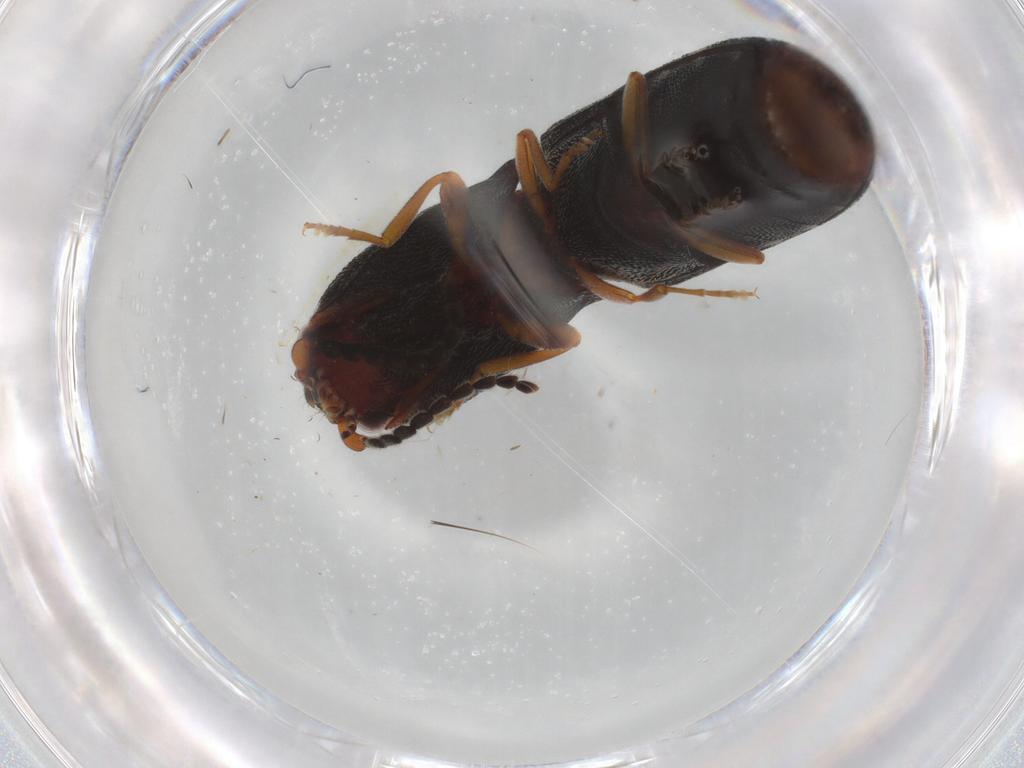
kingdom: Animalia
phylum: Arthropoda
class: Insecta
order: Coleoptera
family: Elateridae
